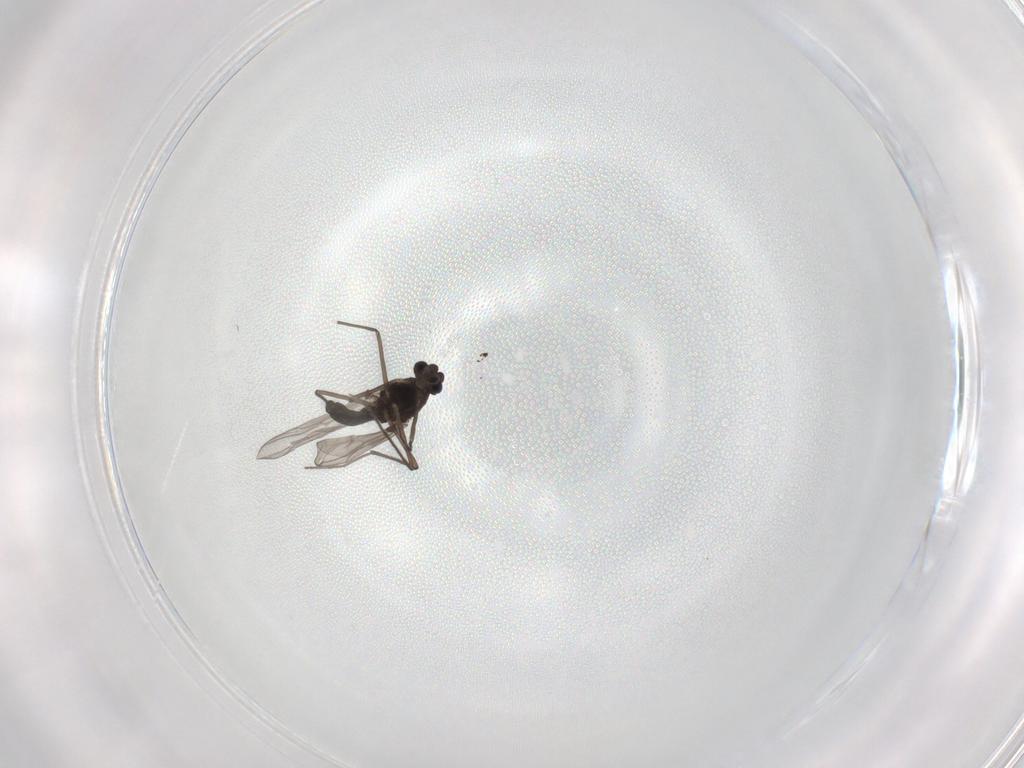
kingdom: Animalia
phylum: Arthropoda
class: Insecta
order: Diptera
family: Chironomidae
